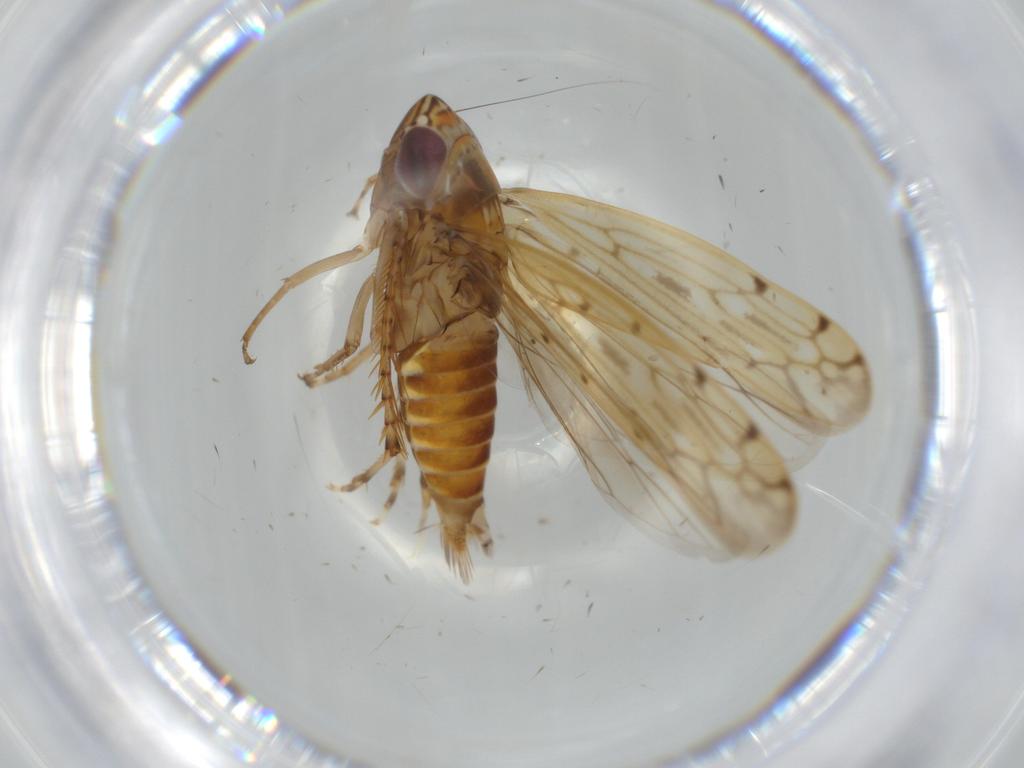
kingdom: Animalia
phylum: Arthropoda
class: Insecta
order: Hemiptera
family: Cicadellidae
